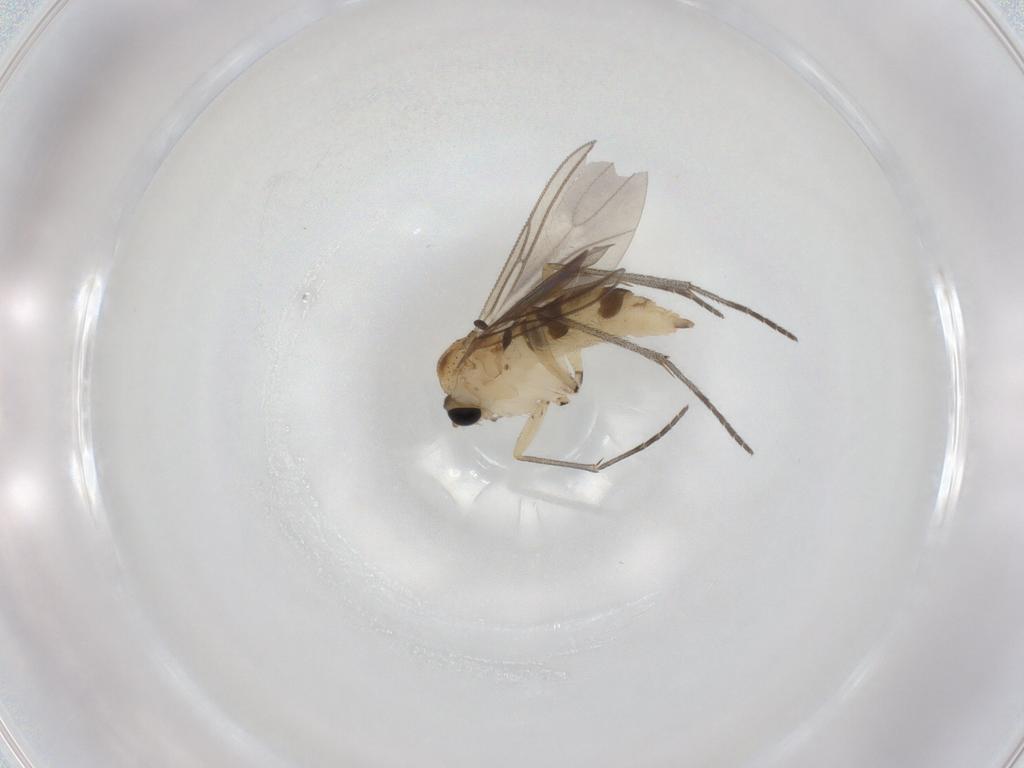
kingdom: Animalia
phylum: Arthropoda
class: Insecta
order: Diptera
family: Sciaridae
